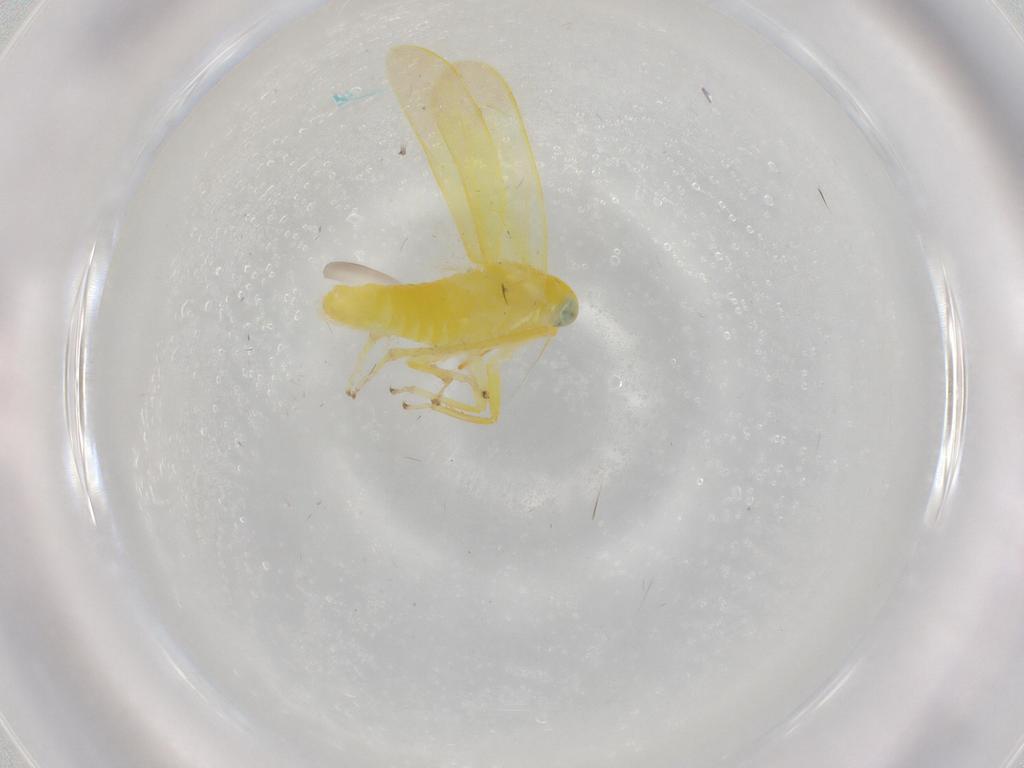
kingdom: Animalia
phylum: Arthropoda
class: Insecta
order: Hemiptera
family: Cicadellidae
